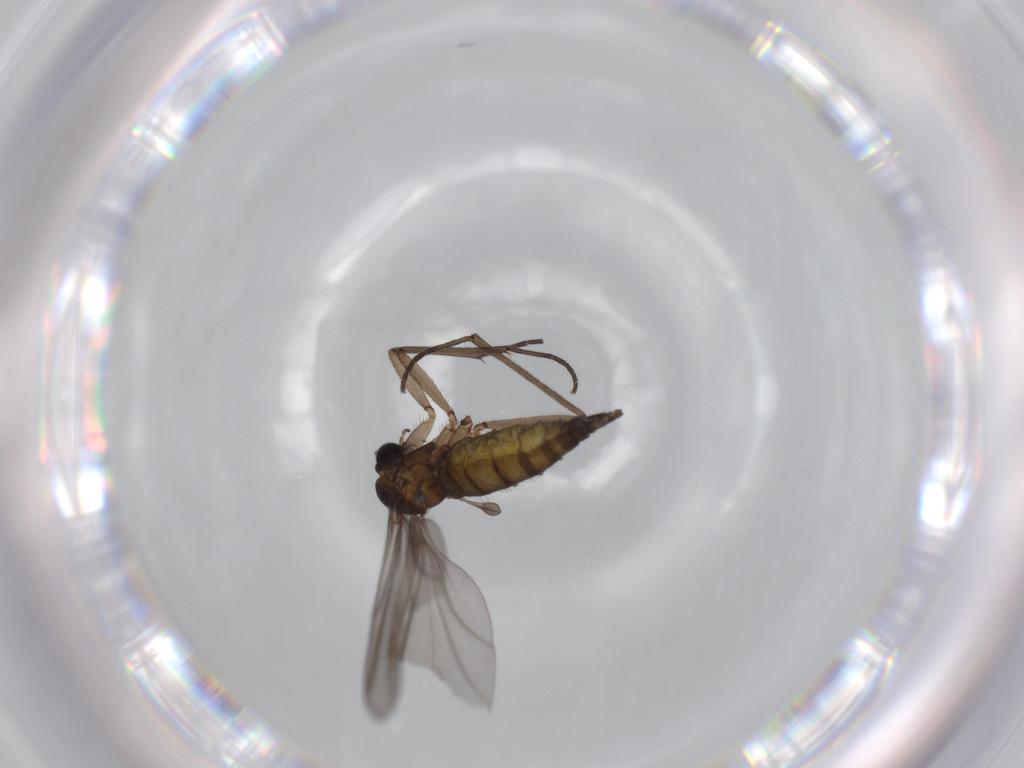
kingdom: Animalia
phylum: Arthropoda
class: Insecta
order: Diptera
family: Sciaridae
